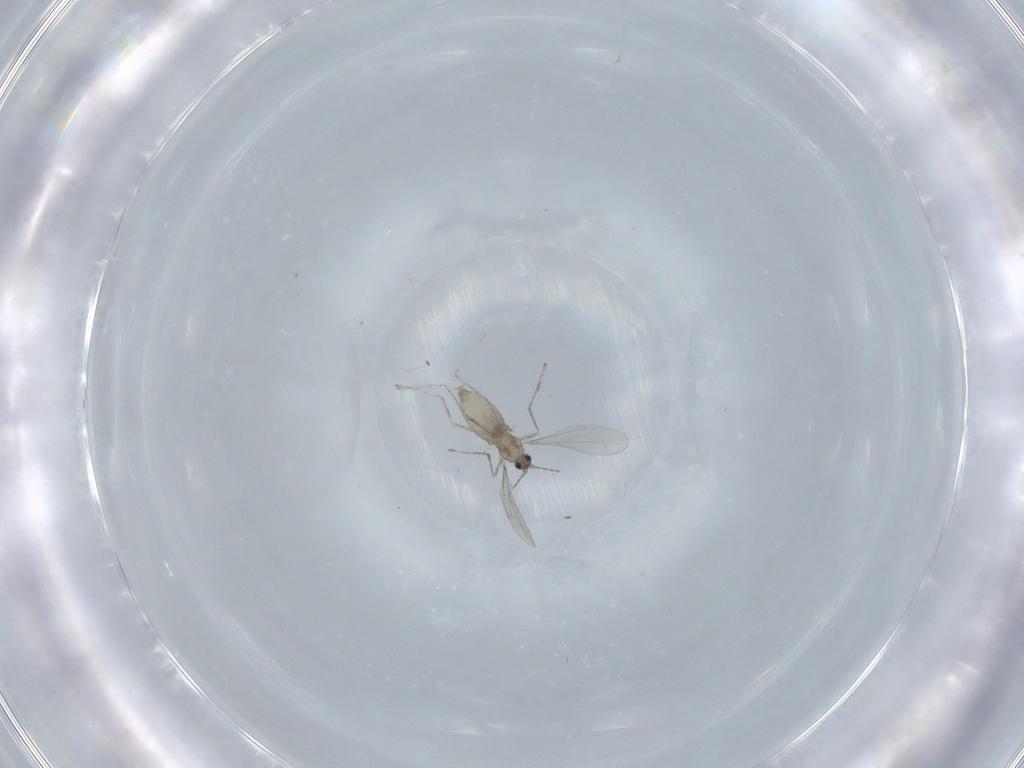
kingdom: Animalia
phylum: Arthropoda
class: Insecta
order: Diptera
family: Cecidomyiidae
